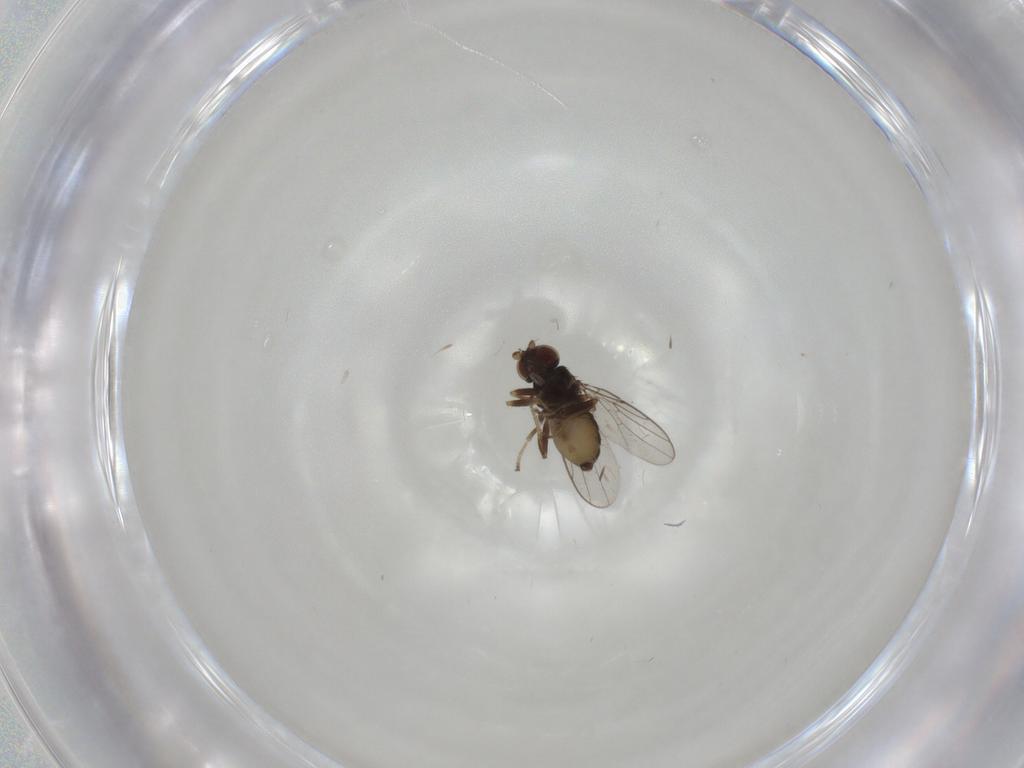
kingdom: Animalia
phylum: Arthropoda
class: Insecta
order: Diptera
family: Chloropidae
